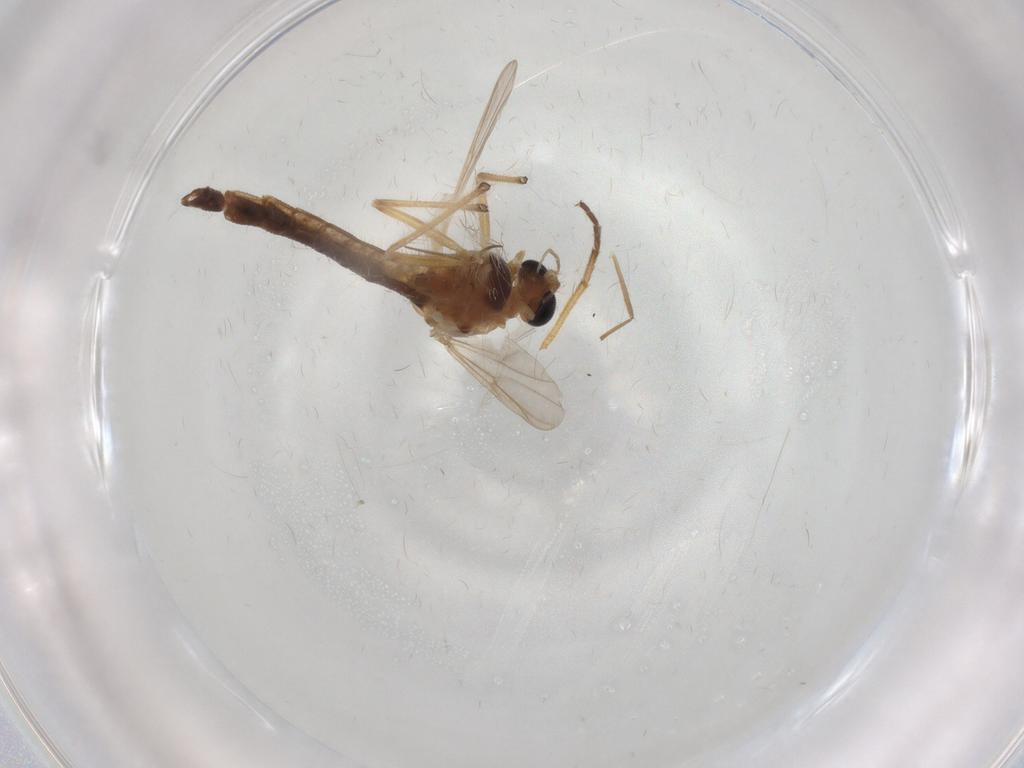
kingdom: Animalia
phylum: Arthropoda
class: Insecta
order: Diptera
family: Chironomidae
